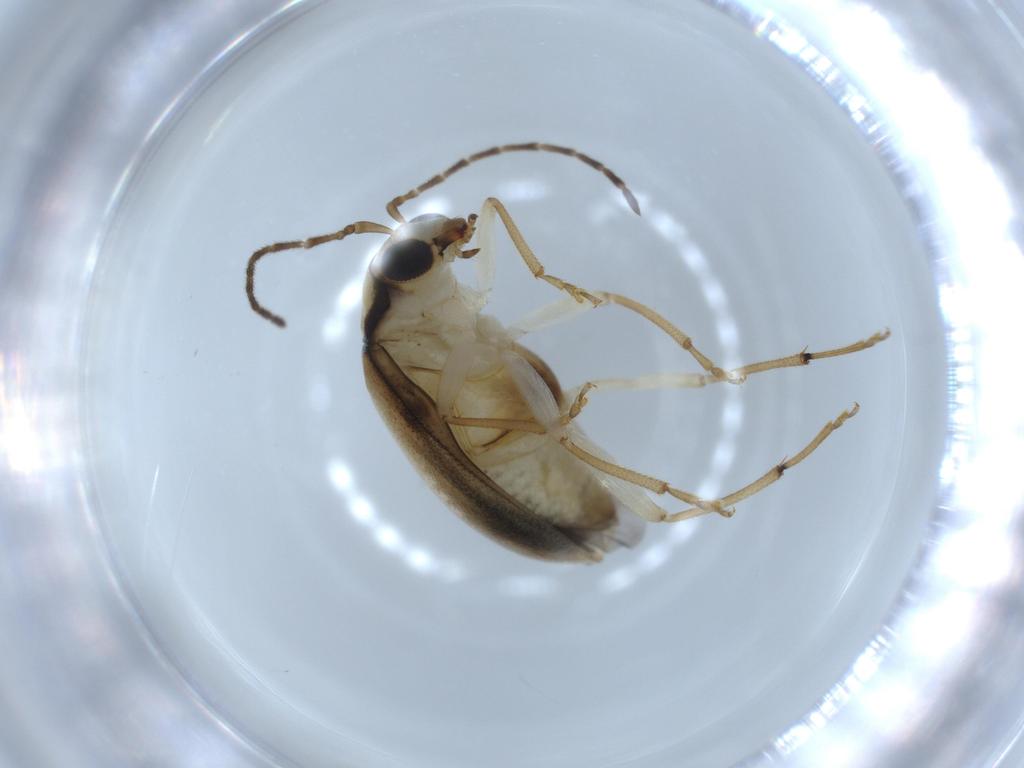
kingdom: Animalia
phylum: Arthropoda
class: Insecta
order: Coleoptera
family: Chrysomelidae
